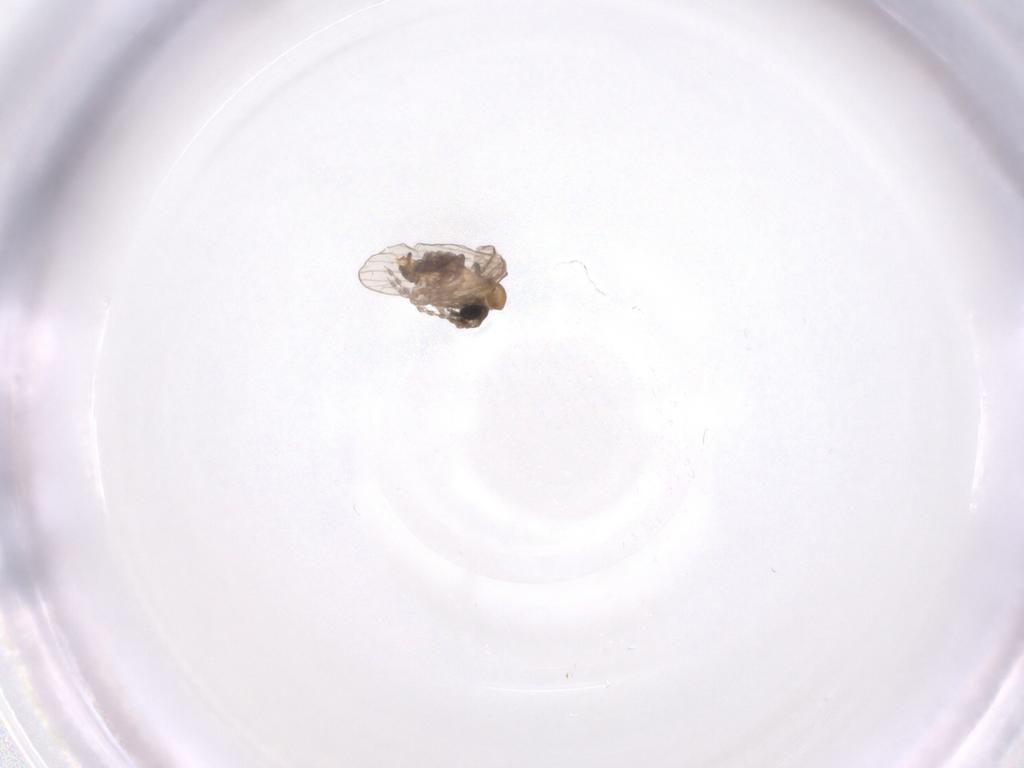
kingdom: Animalia
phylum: Arthropoda
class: Insecta
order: Diptera
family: Psychodidae
